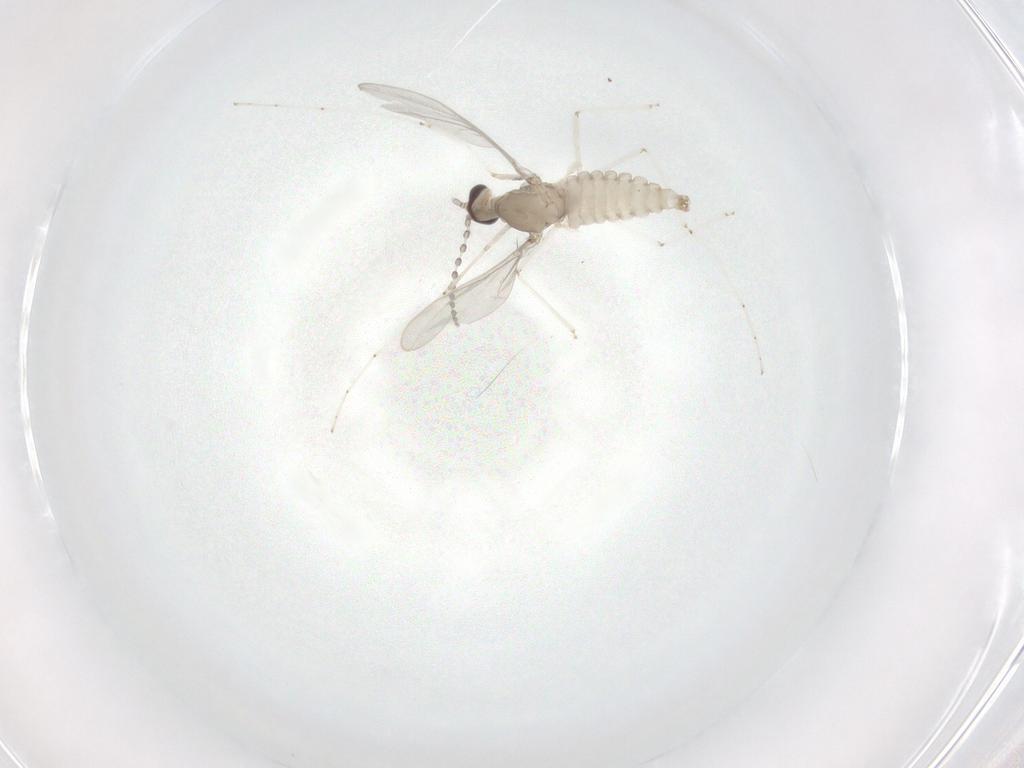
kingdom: Animalia
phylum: Arthropoda
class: Insecta
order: Diptera
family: Cecidomyiidae
